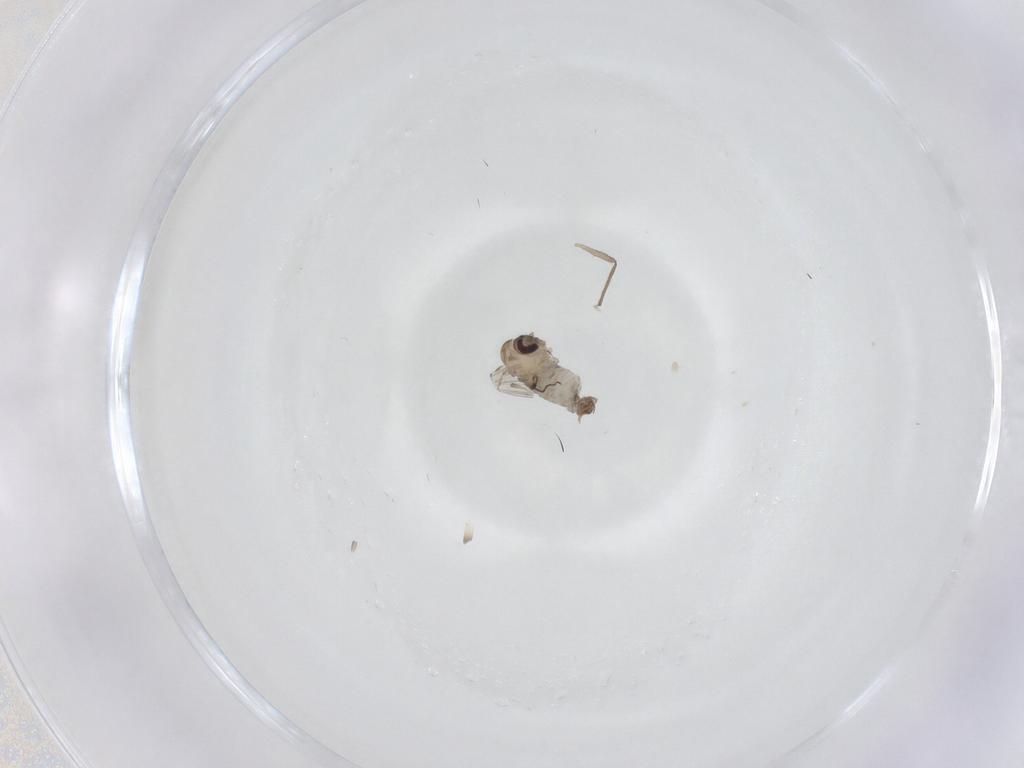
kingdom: Animalia
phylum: Arthropoda
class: Insecta
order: Diptera
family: Psychodidae
